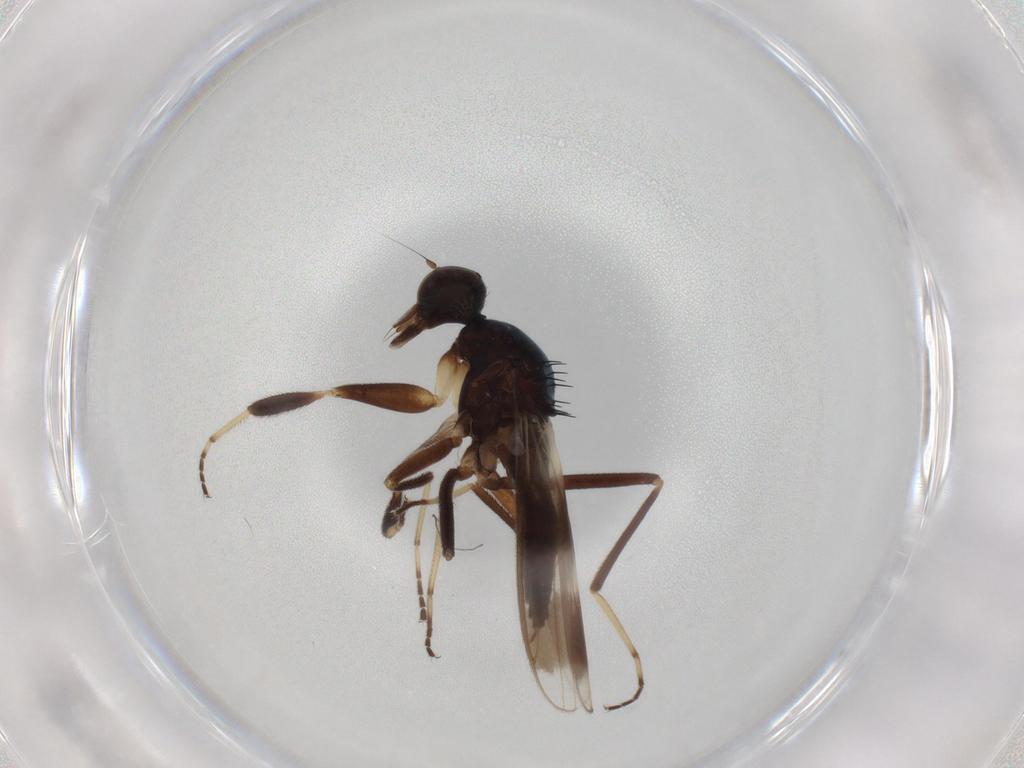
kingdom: Animalia
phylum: Arthropoda
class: Insecta
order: Diptera
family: Hybotidae
